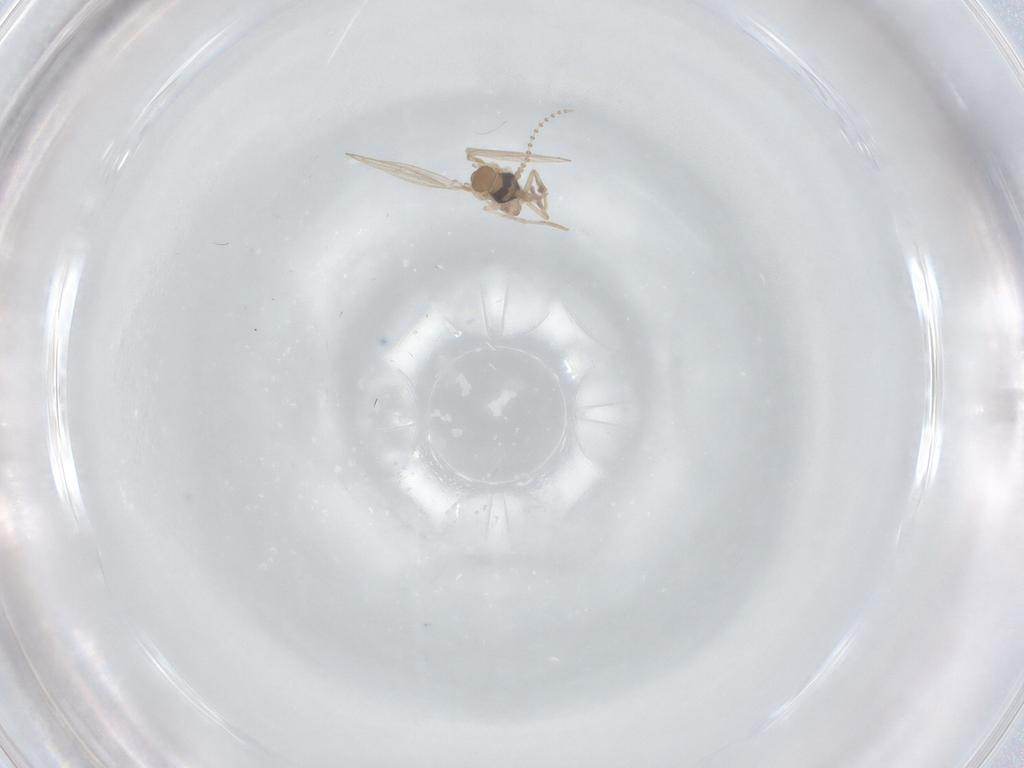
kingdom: Animalia
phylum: Arthropoda
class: Insecta
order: Diptera
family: Psychodidae
